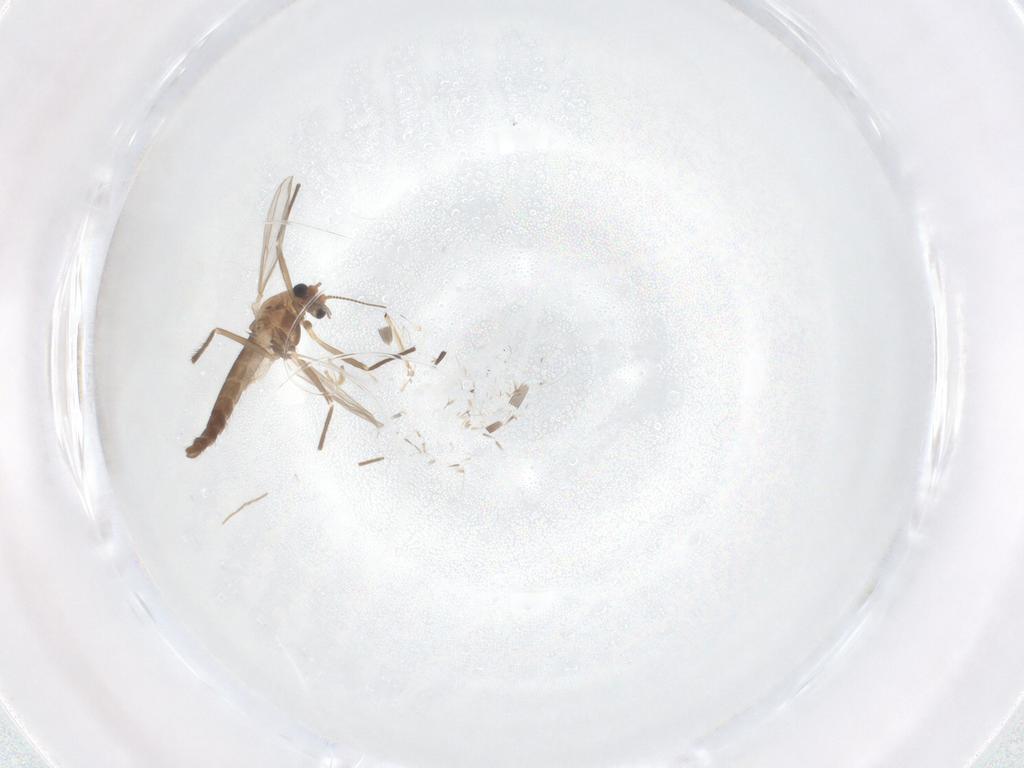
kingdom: Animalia
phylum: Arthropoda
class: Insecta
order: Diptera
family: Chironomidae
